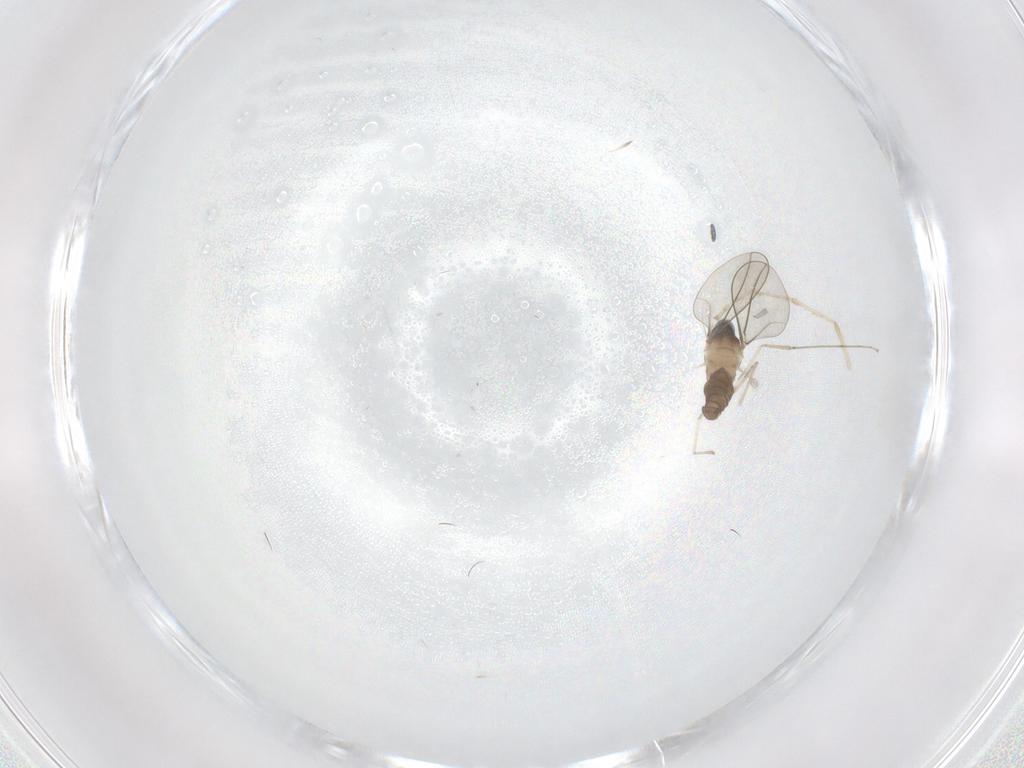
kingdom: Animalia
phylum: Arthropoda
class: Insecta
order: Diptera
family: Cecidomyiidae
